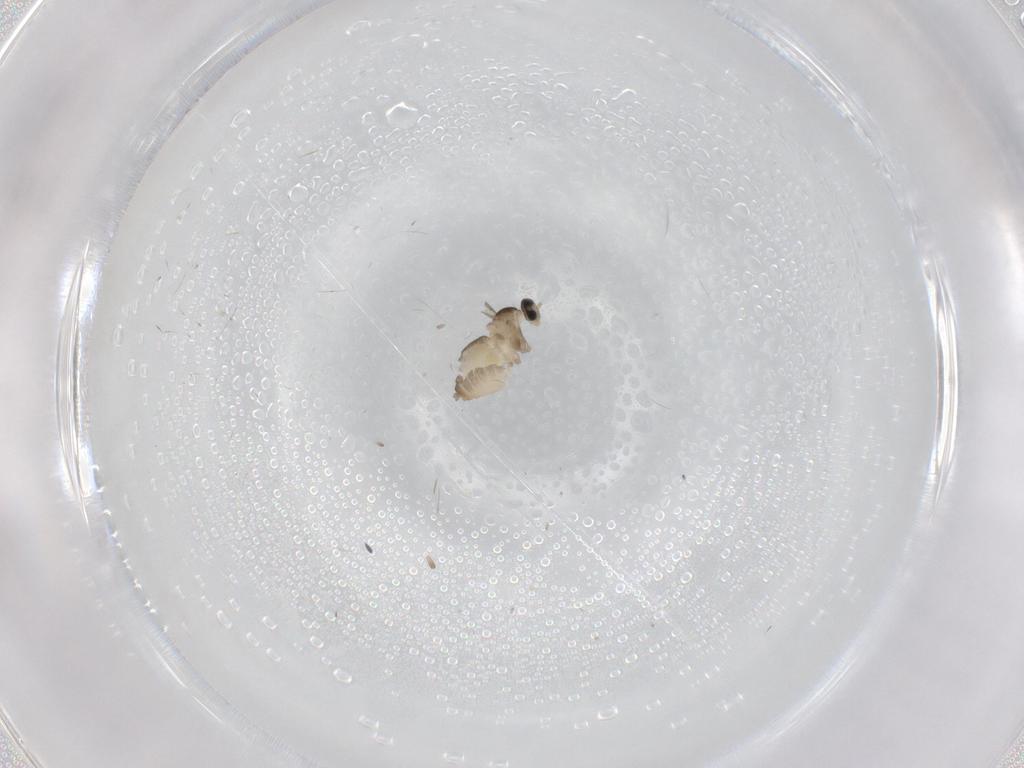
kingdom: Animalia
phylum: Arthropoda
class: Insecta
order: Diptera
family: Cecidomyiidae
